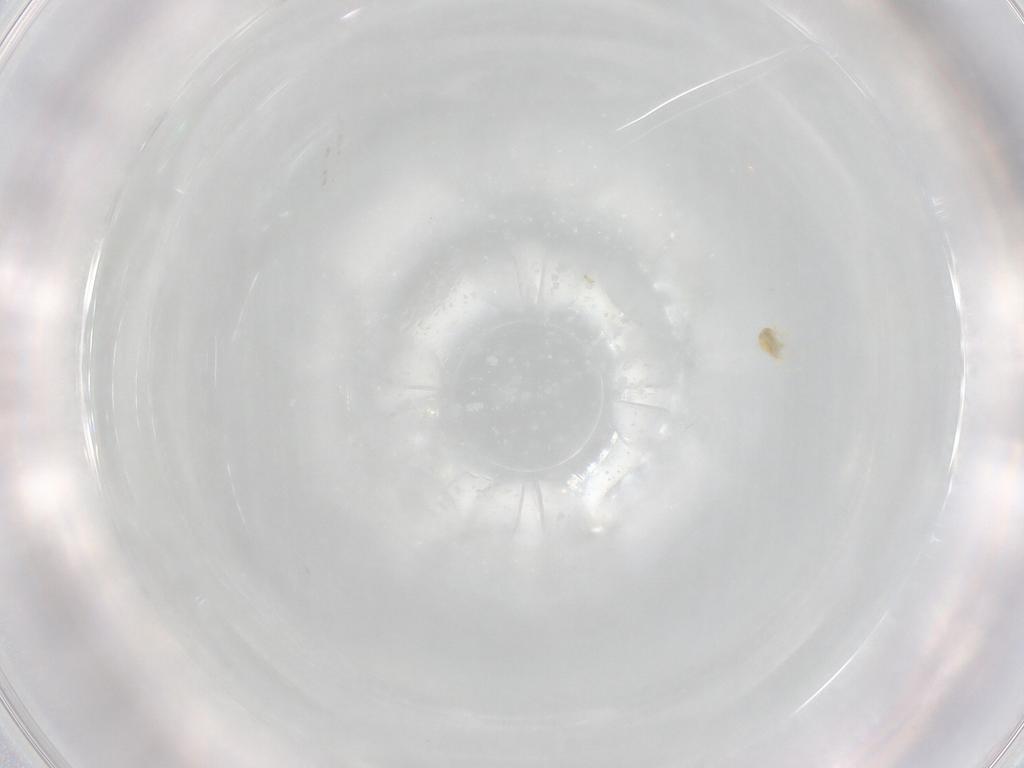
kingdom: Animalia
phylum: Arthropoda
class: Arachnida
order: Trombidiformes
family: Eupodidae
